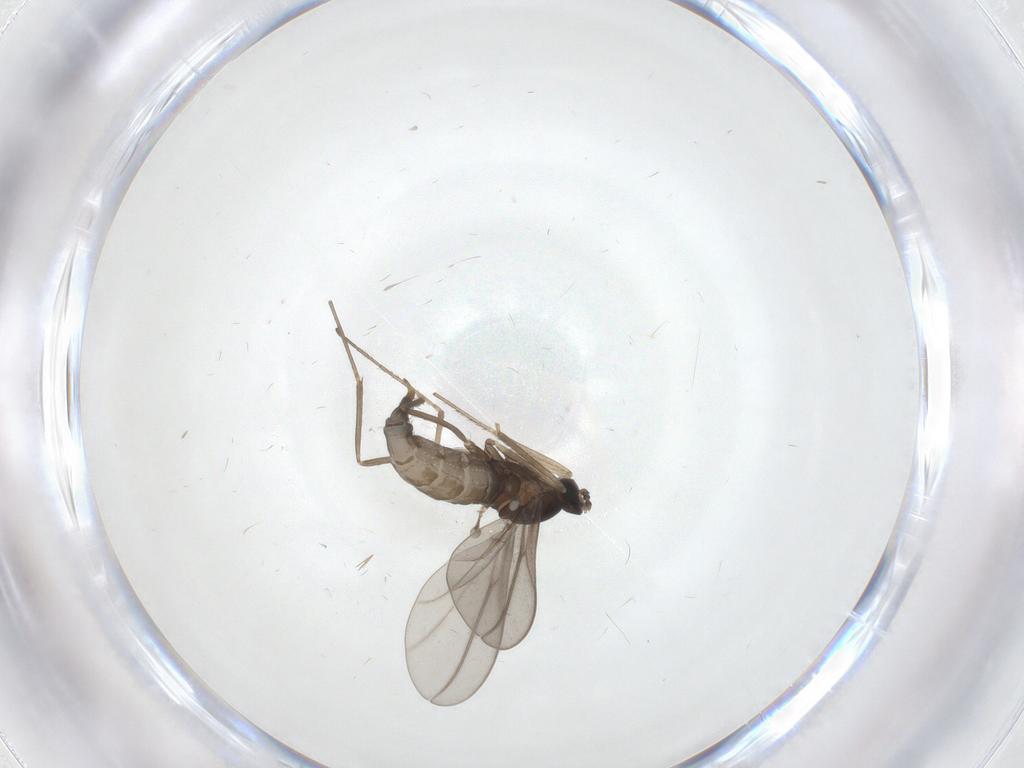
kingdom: Animalia
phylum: Arthropoda
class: Insecta
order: Diptera
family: Cecidomyiidae
